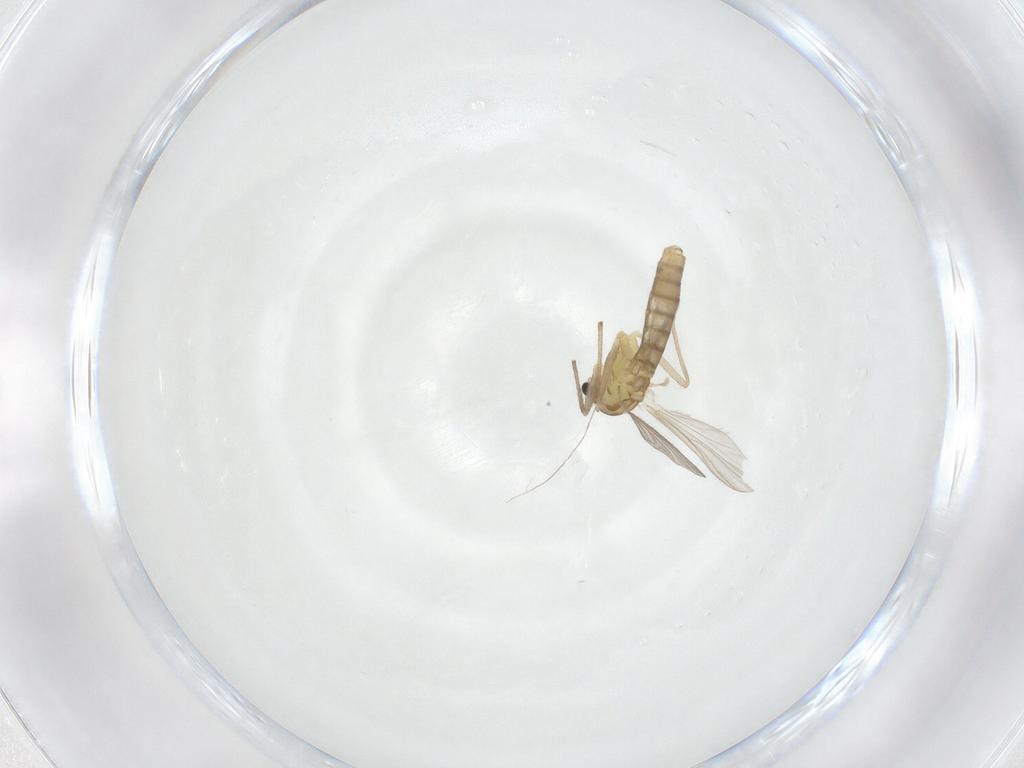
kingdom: Animalia
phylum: Arthropoda
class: Insecta
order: Diptera
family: Chironomidae
